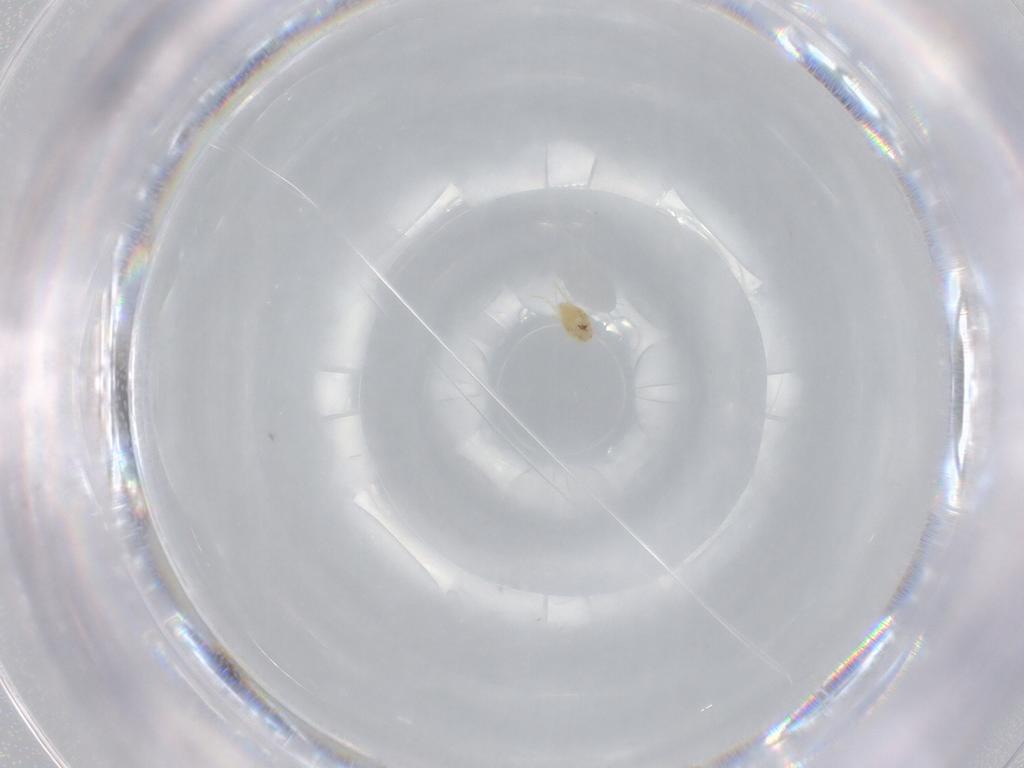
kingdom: Animalia
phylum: Arthropoda
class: Arachnida
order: Trombidiformes
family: Tetranychidae
